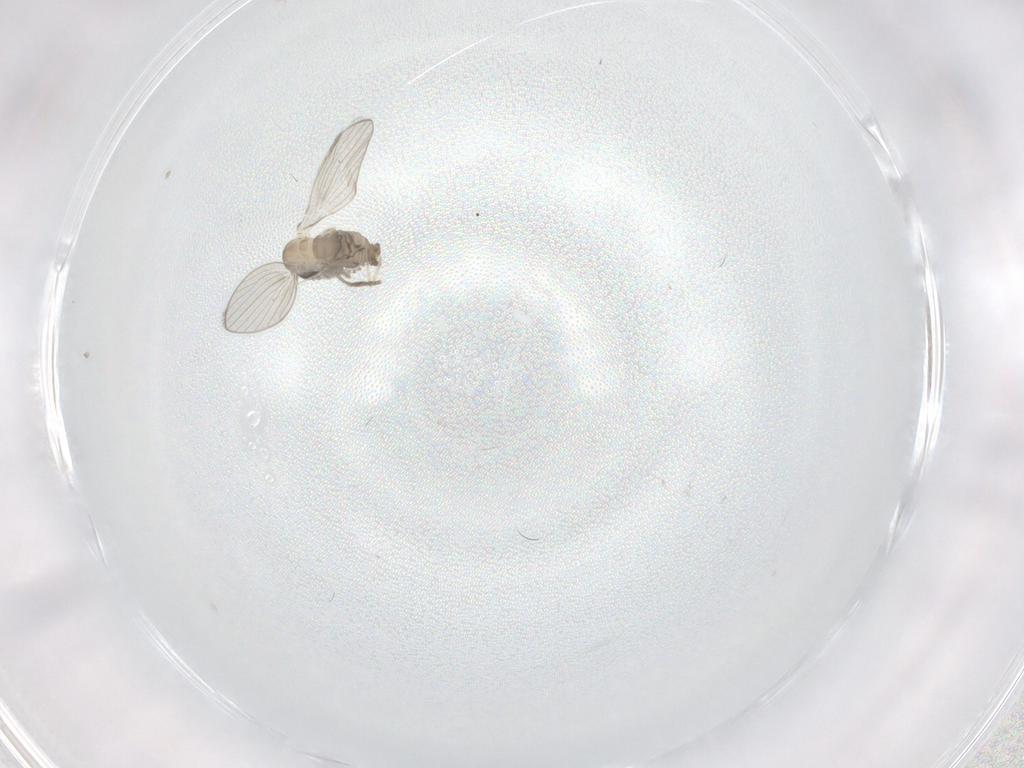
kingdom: Animalia
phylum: Arthropoda
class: Insecta
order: Diptera
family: Psychodidae
